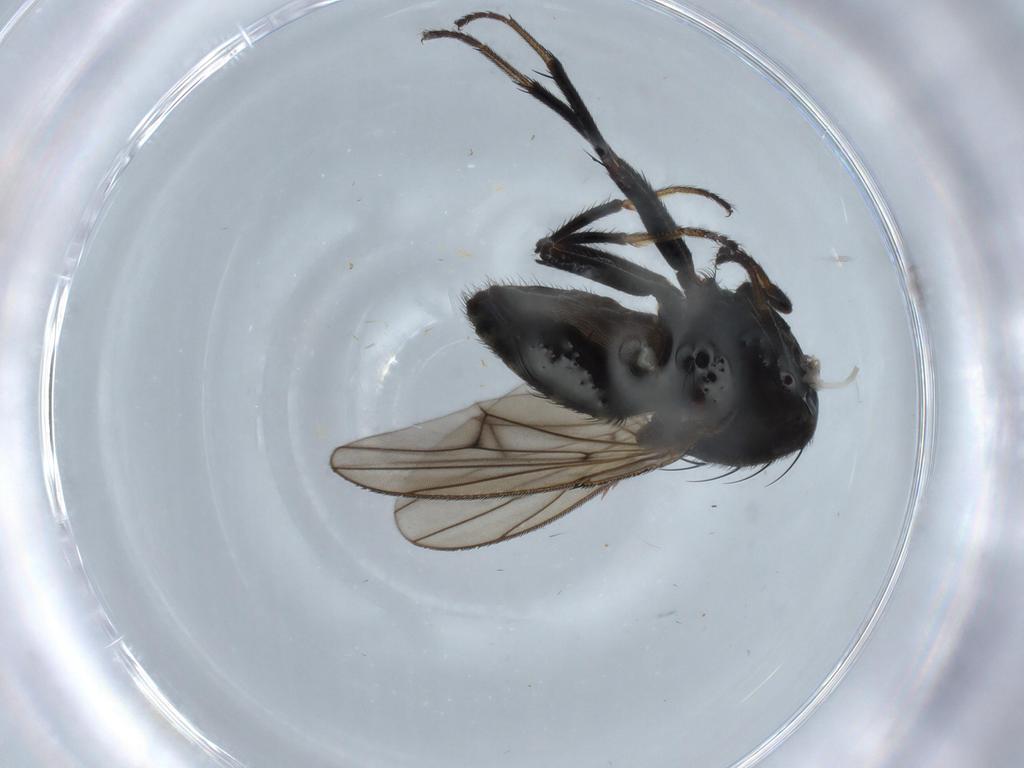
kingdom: Animalia
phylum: Arthropoda
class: Insecta
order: Diptera
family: Ephydridae
